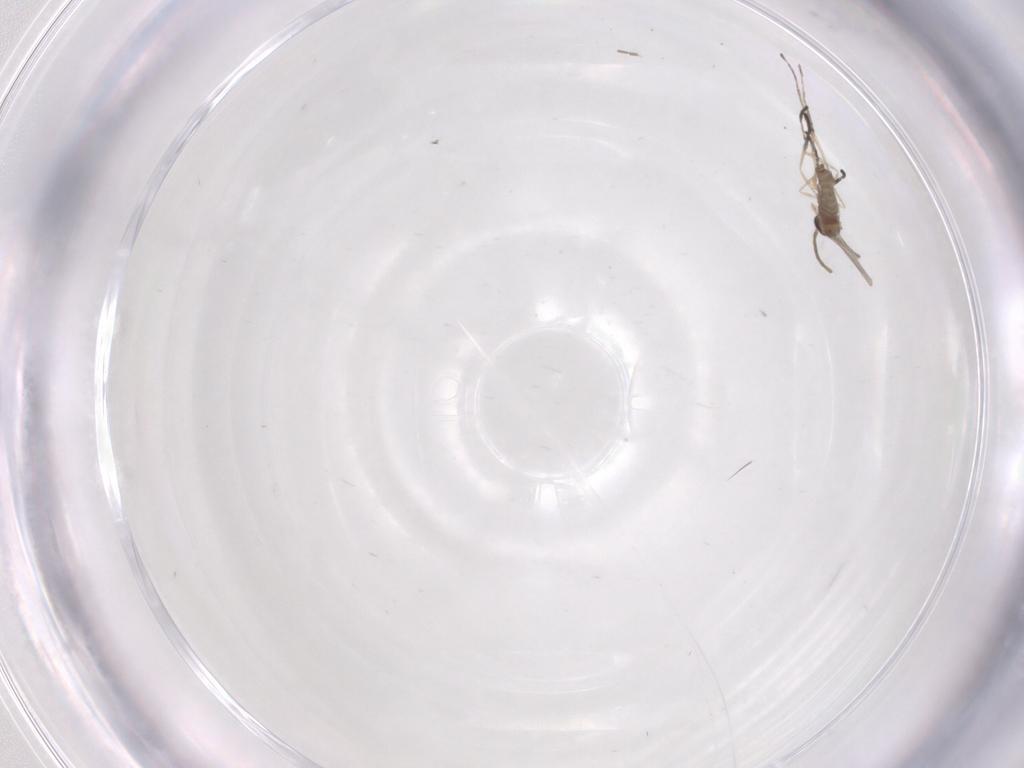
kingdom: Animalia
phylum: Arthropoda
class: Insecta
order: Diptera
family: Cecidomyiidae
